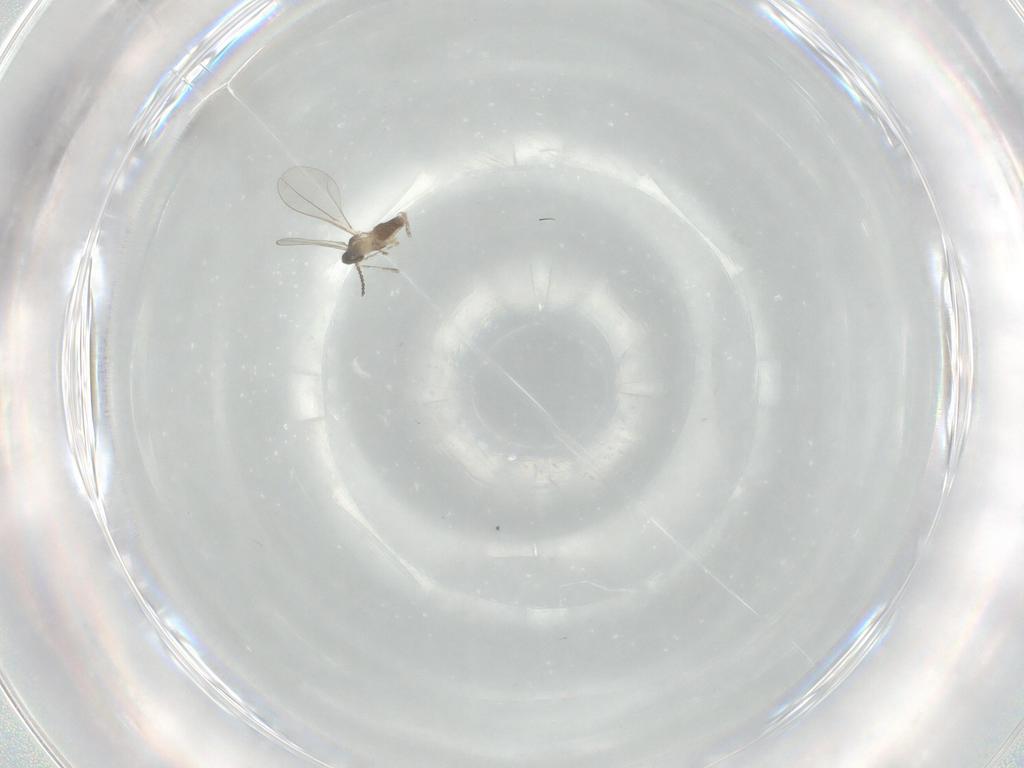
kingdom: Animalia
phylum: Arthropoda
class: Insecta
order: Diptera
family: Cecidomyiidae
